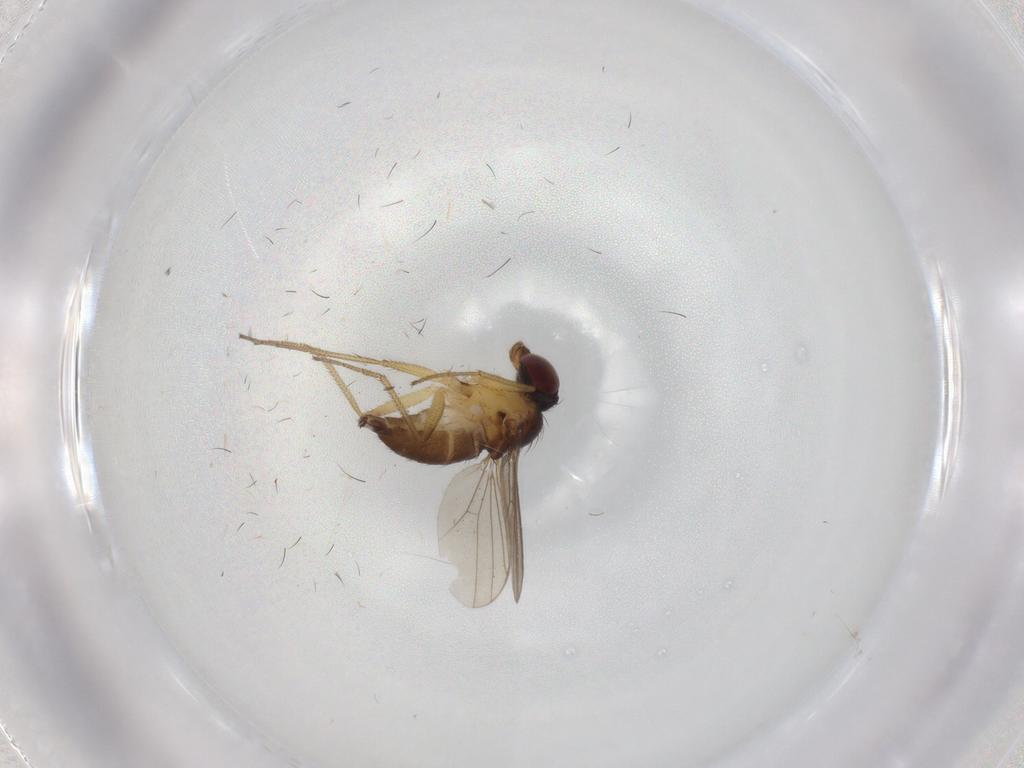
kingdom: Animalia
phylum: Arthropoda
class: Insecta
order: Diptera
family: Dolichopodidae
